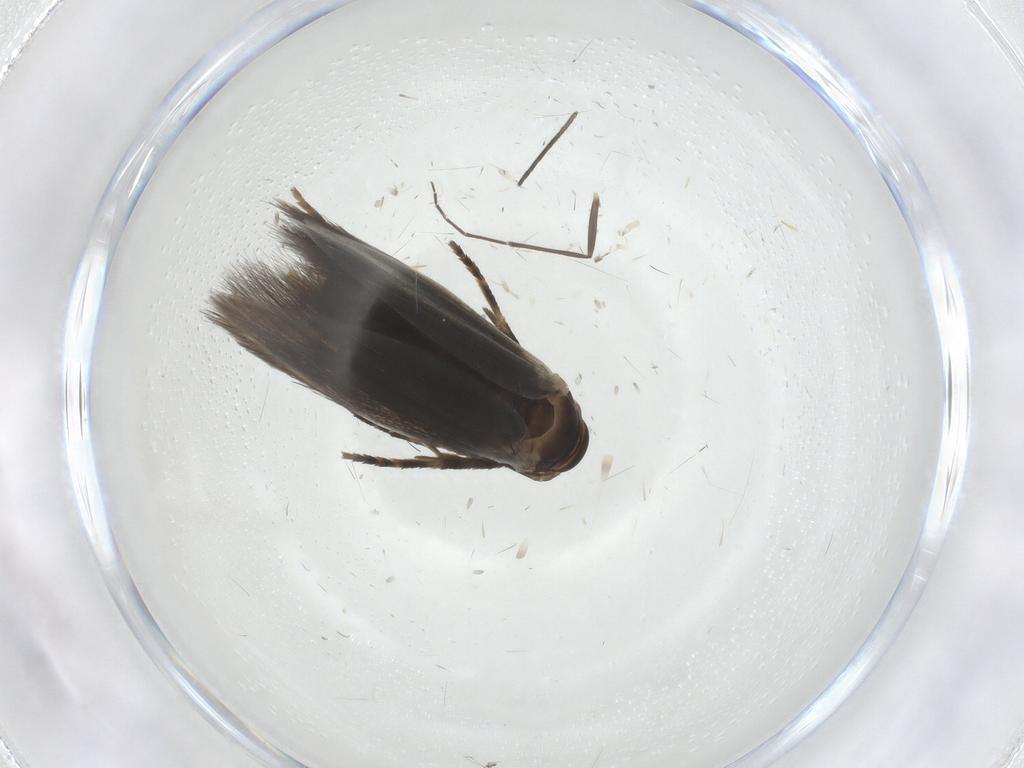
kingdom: Animalia
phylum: Arthropoda
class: Insecta
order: Lepidoptera
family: Elachistidae
